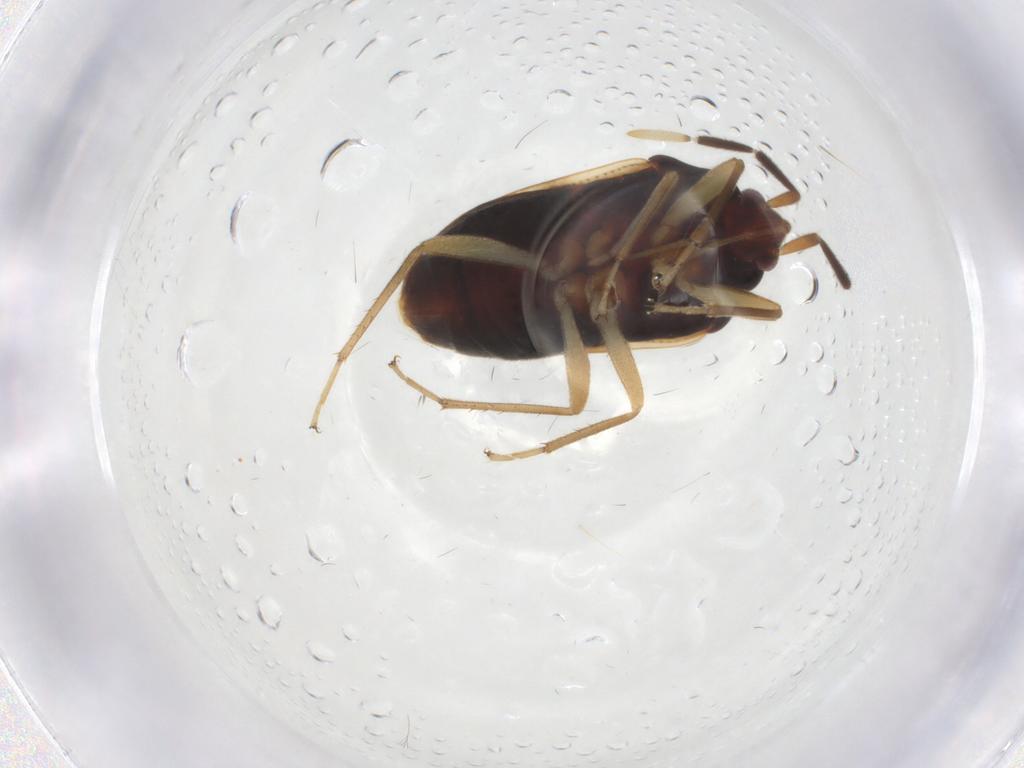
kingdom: Animalia
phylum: Arthropoda
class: Insecta
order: Hemiptera
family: Rhyparochromidae
